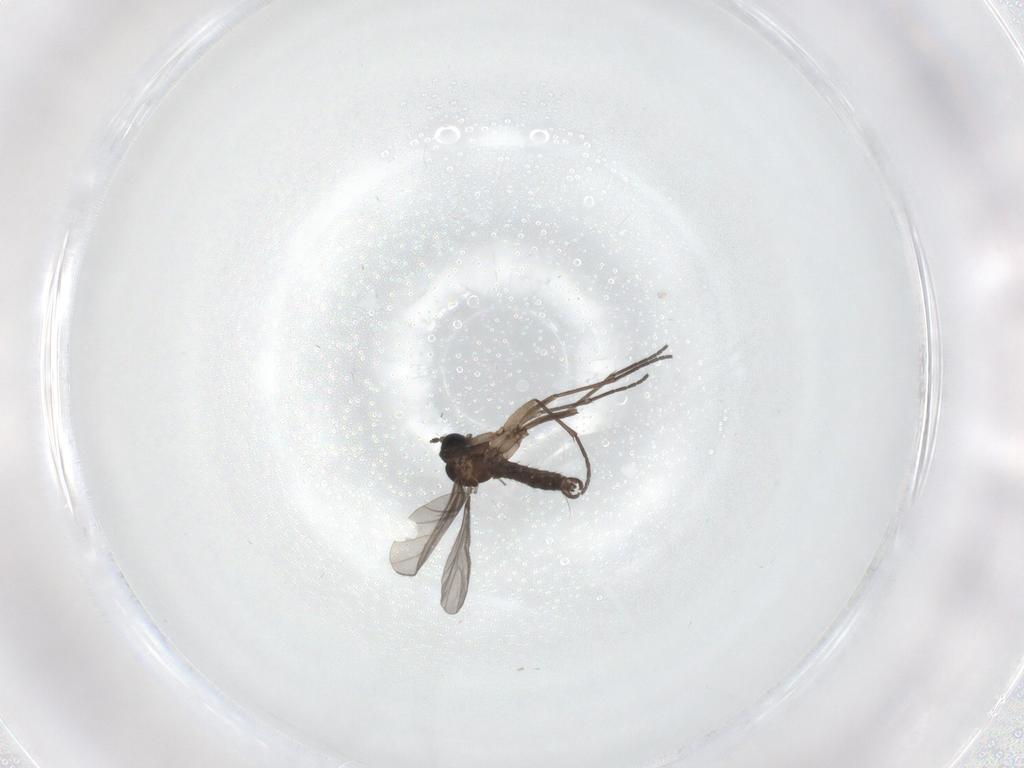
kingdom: Animalia
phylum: Arthropoda
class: Insecta
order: Diptera
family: Sciaridae
